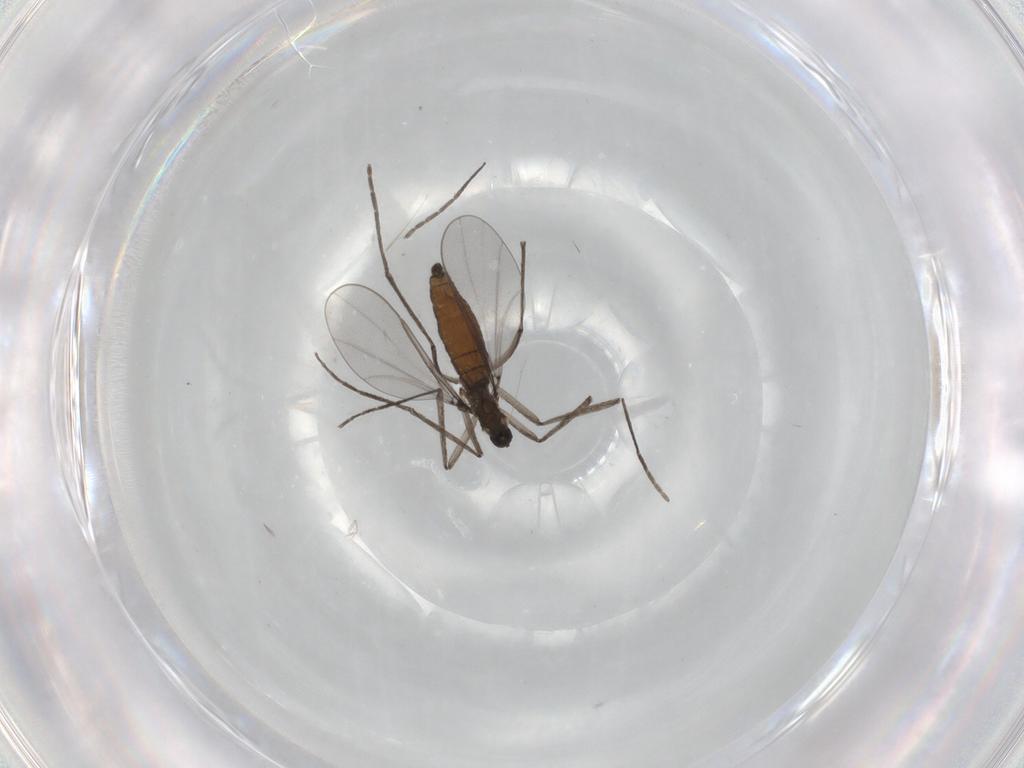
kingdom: Animalia
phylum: Arthropoda
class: Insecta
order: Diptera
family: Cecidomyiidae
